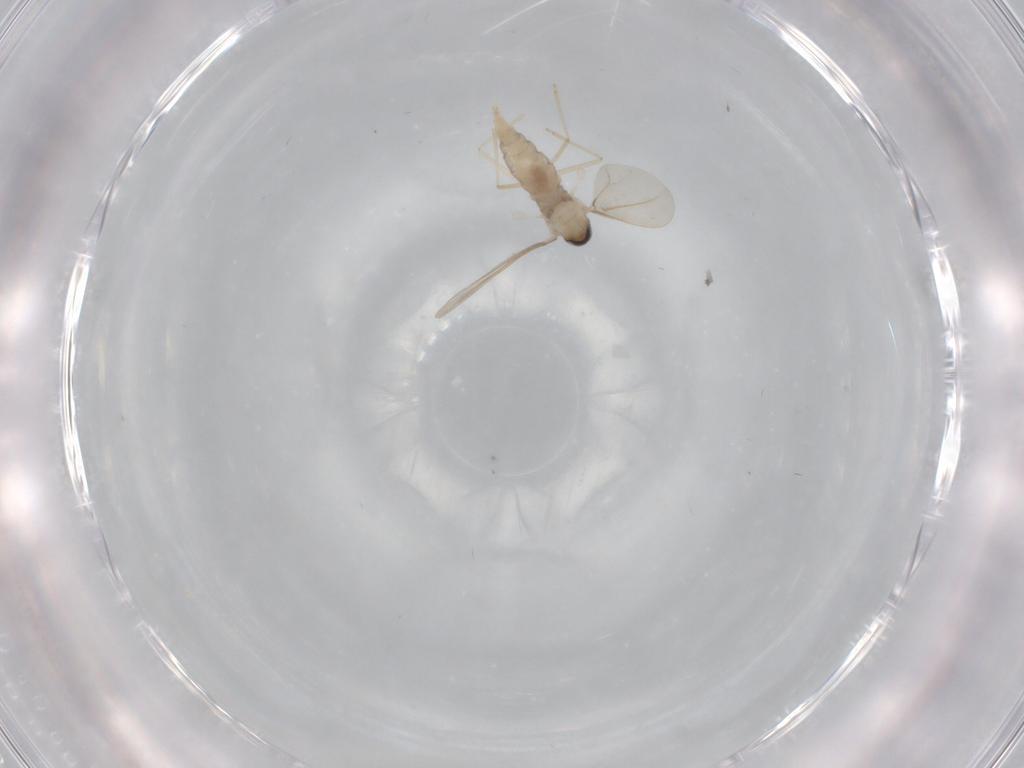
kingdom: Animalia
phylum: Arthropoda
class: Insecta
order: Diptera
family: Cecidomyiidae
